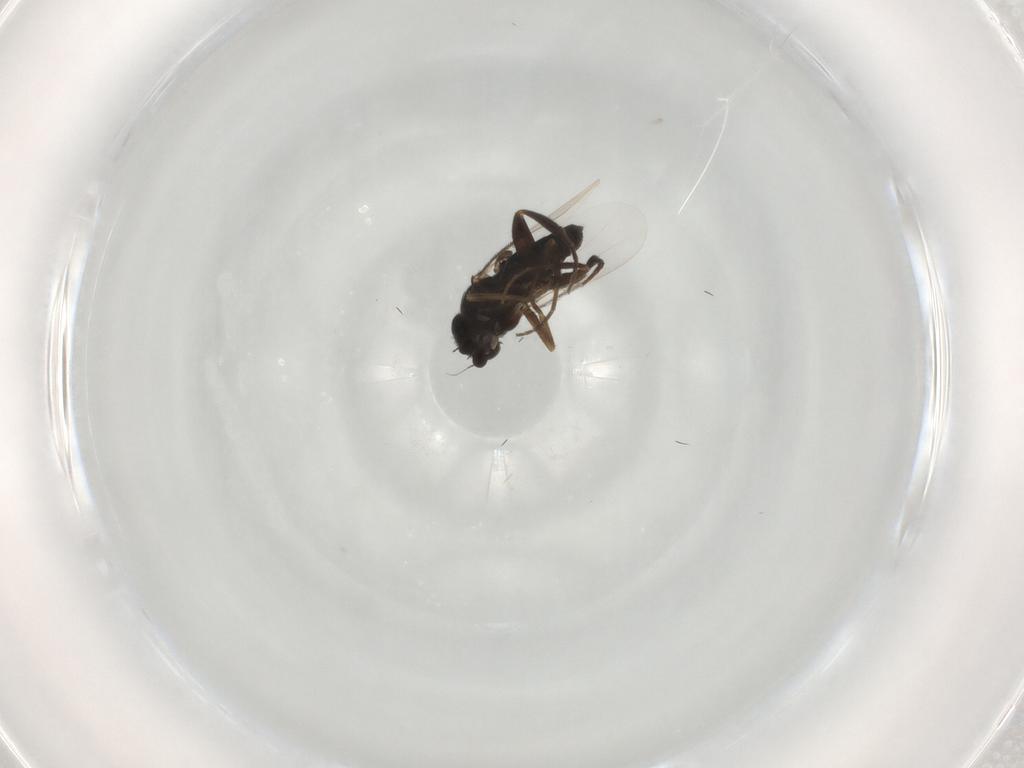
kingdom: Animalia
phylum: Arthropoda
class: Insecta
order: Diptera
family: Phoridae
